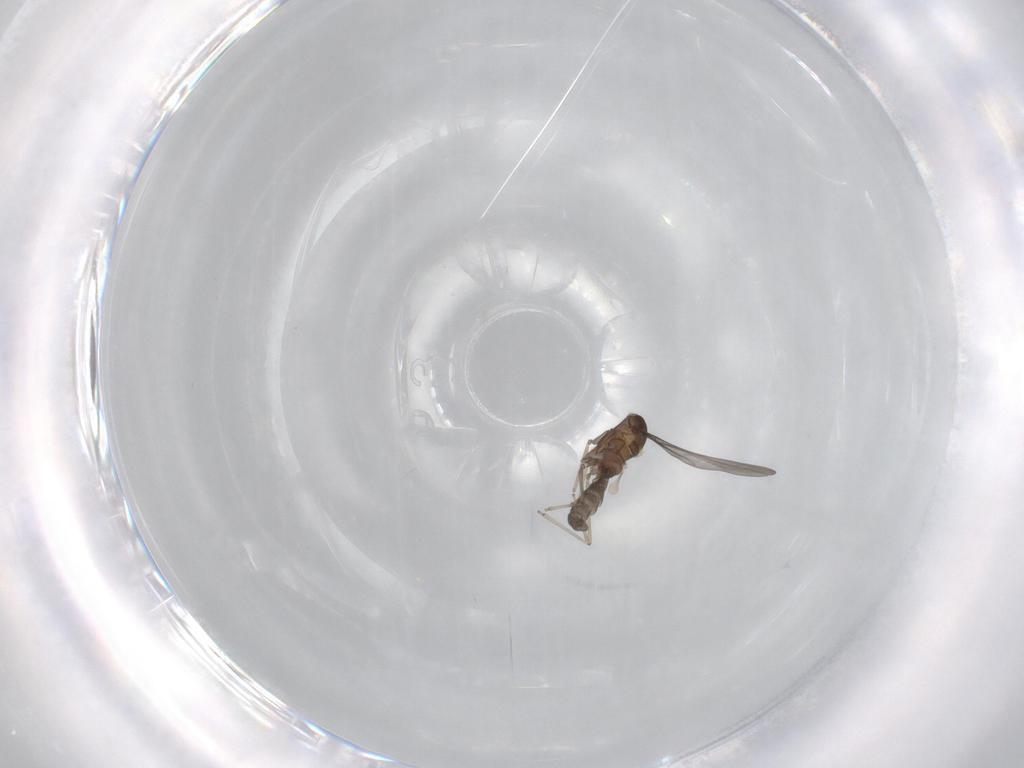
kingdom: Animalia
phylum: Arthropoda
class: Insecta
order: Diptera
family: Cecidomyiidae
